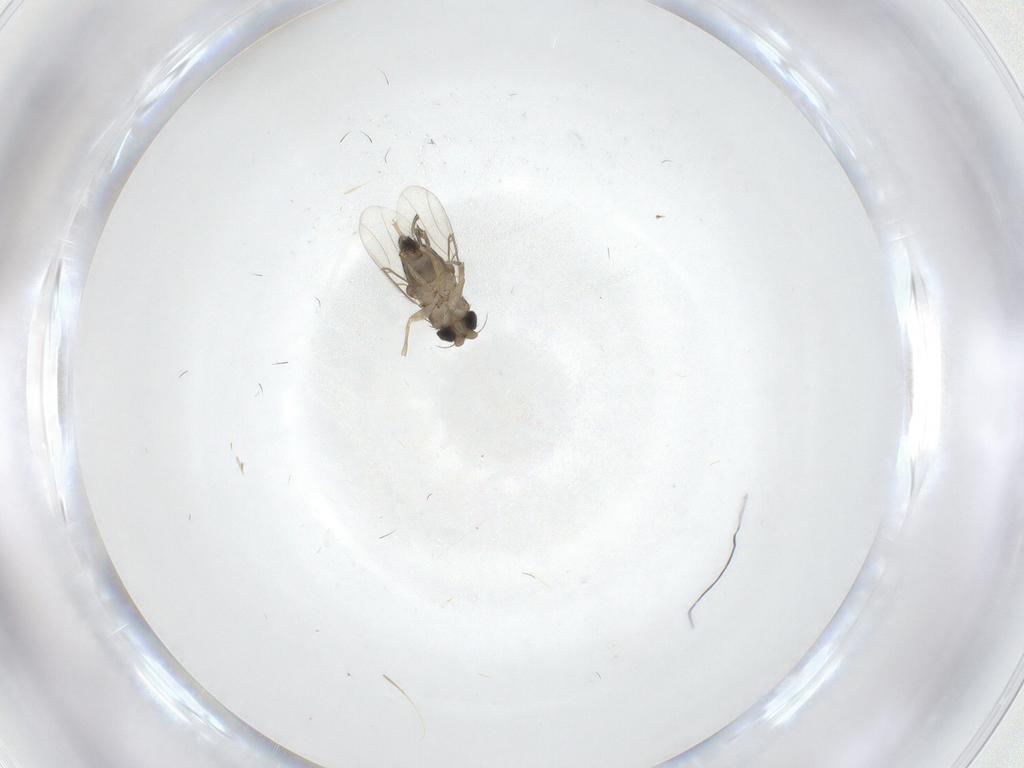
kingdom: Animalia
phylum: Arthropoda
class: Insecta
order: Diptera
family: Phoridae
